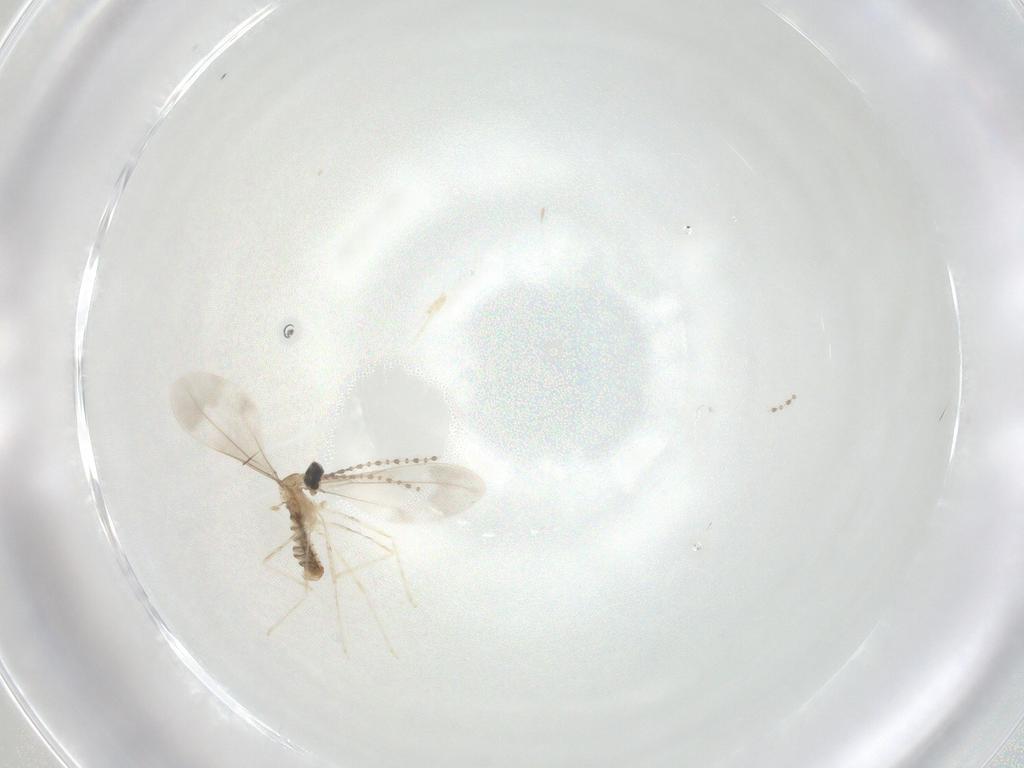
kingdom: Animalia
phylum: Arthropoda
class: Insecta
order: Diptera
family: Cecidomyiidae
